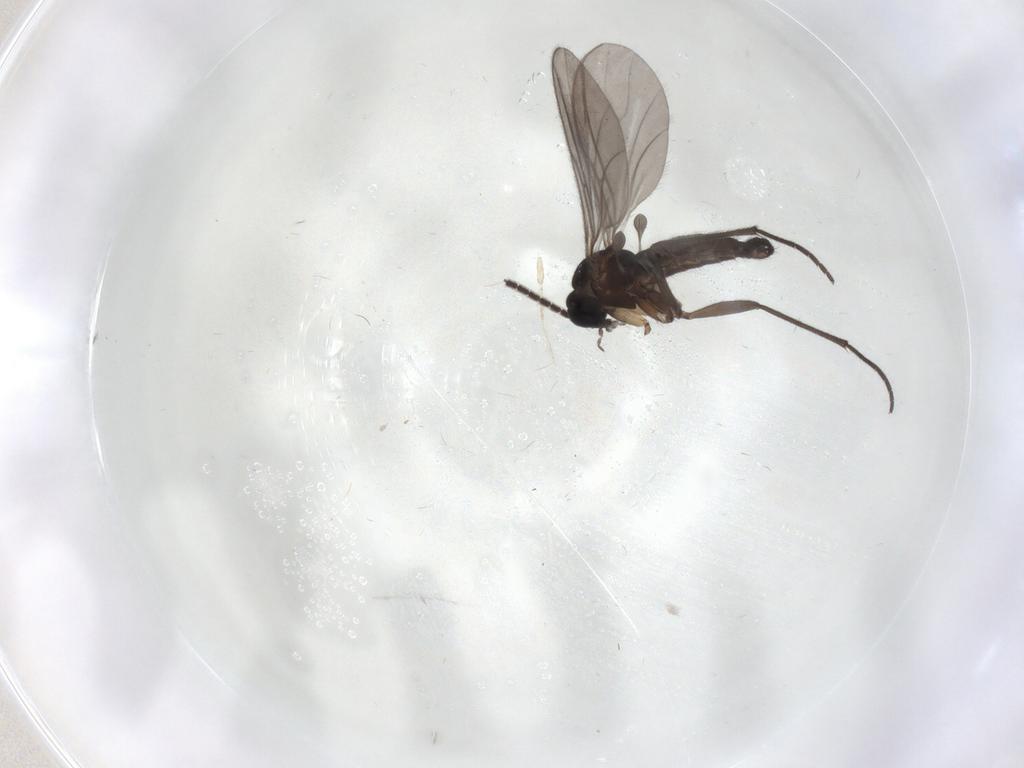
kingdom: Animalia
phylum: Arthropoda
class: Insecta
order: Diptera
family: Sciaridae
